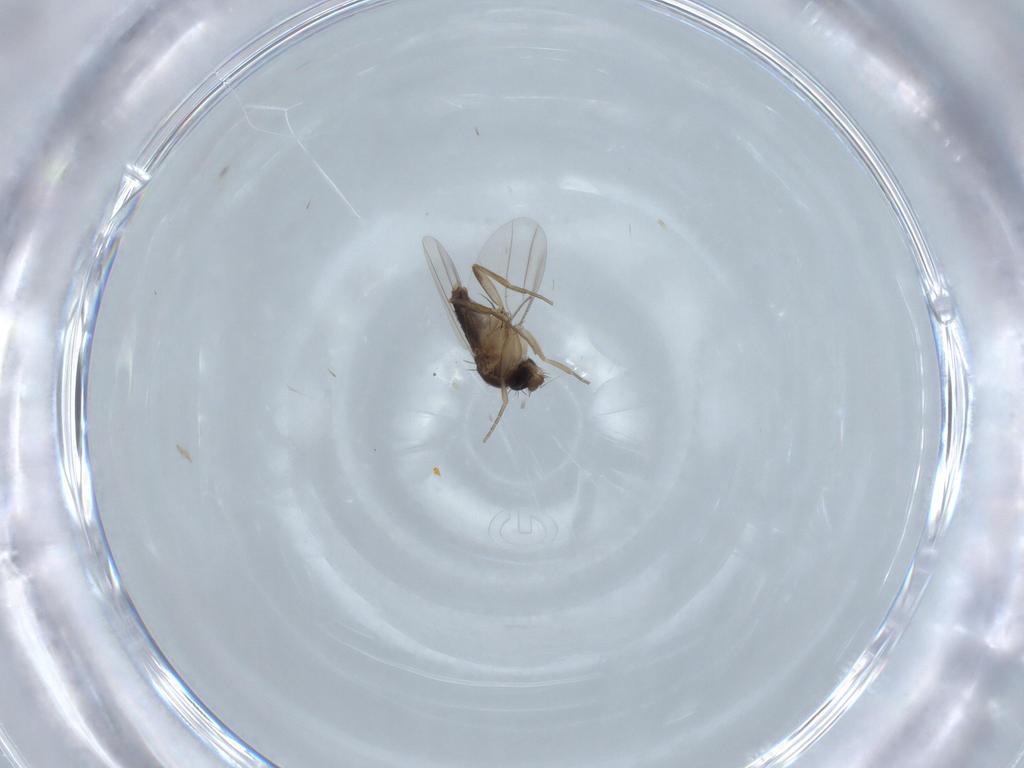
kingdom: Animalia
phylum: Arthropoda
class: Insecta
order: Diptera
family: Phoridae
